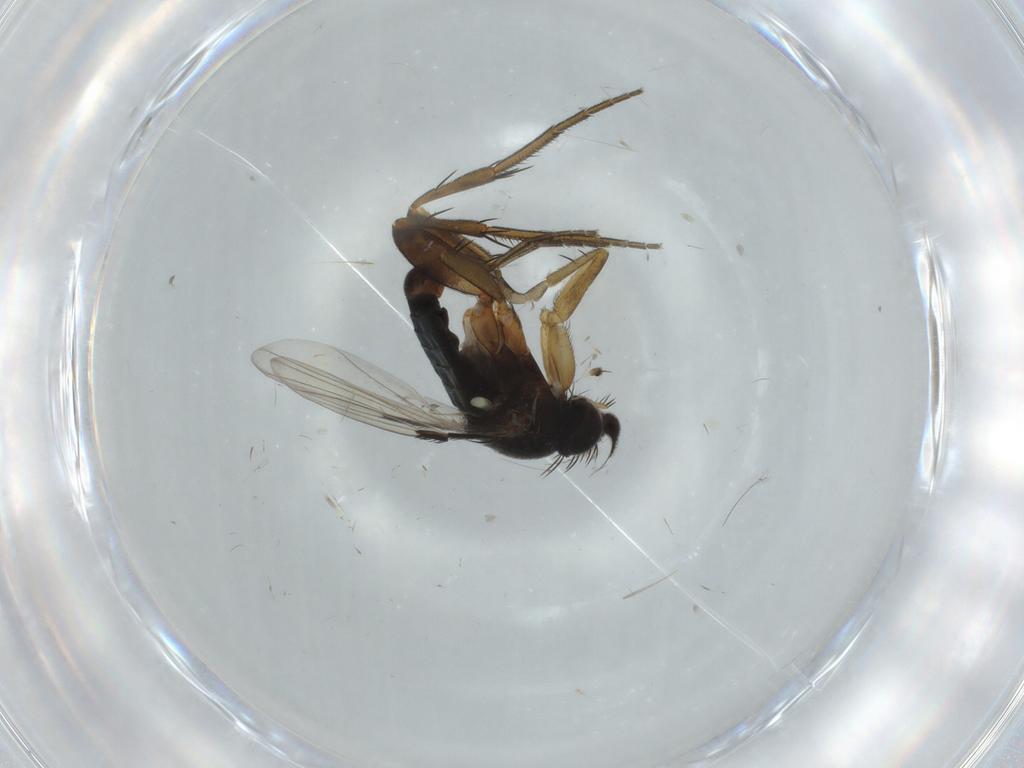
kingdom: Animalia
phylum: Arthropoda
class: Insecta
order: Diptera
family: Phoridae
